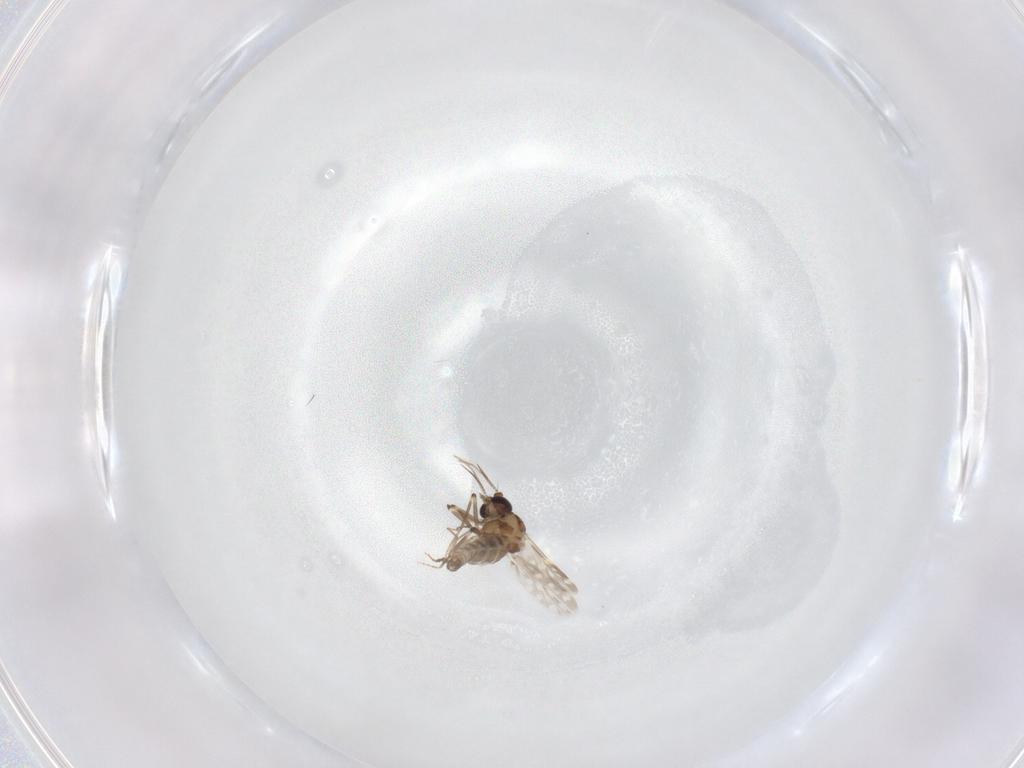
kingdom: Animalia
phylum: Arthropoda
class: Insecta
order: Diptera
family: Ceratopogonidae
